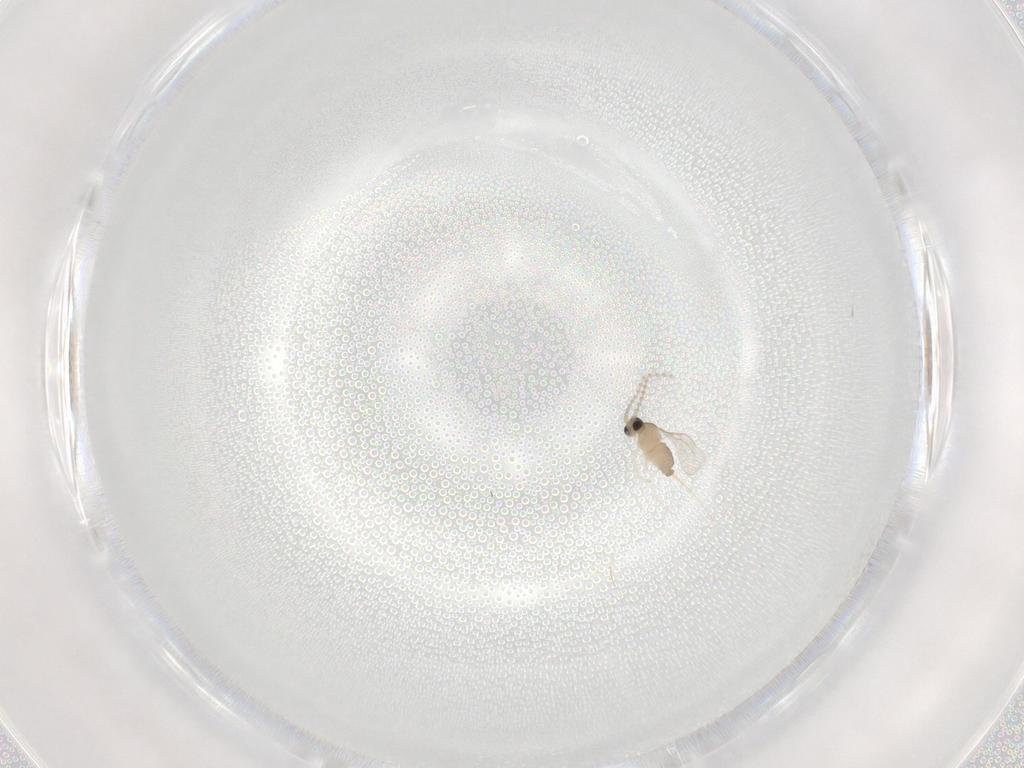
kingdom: Animalia
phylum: Arthropoda
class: Insecta
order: Diptera
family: Cecidomyiidae
